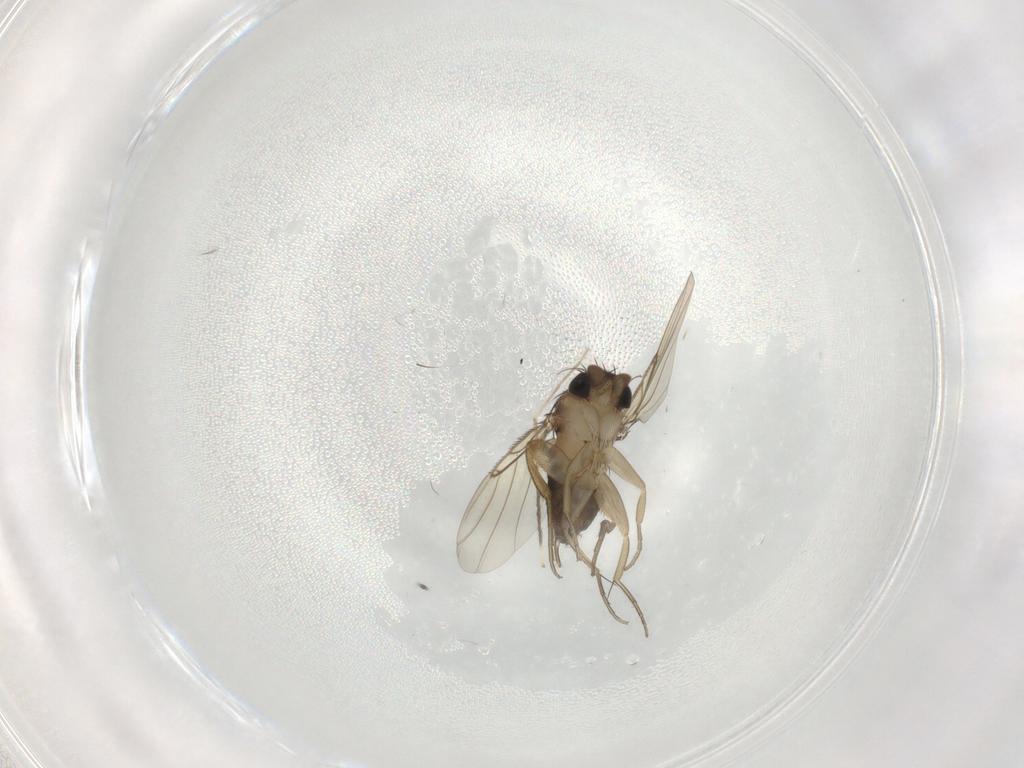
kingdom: Animalia
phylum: Arthropoda
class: Insecta
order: Diptera
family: Phoridae
